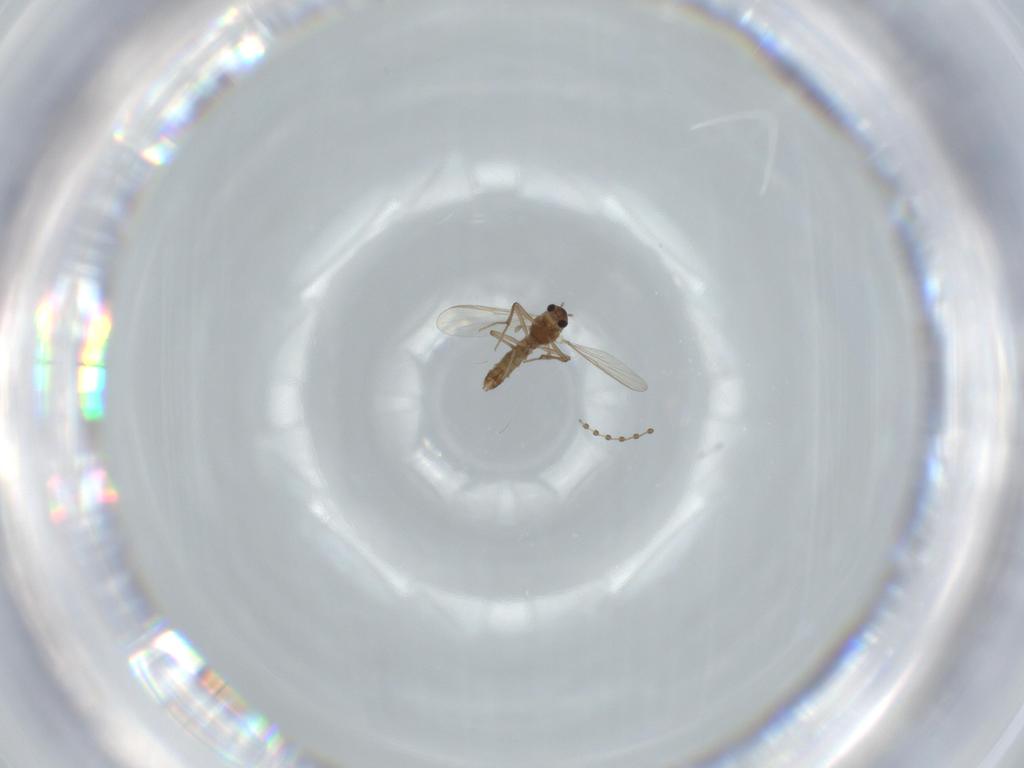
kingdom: Animalia
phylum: Arthropoda
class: Insecta
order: Diptera
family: Chironomidae
